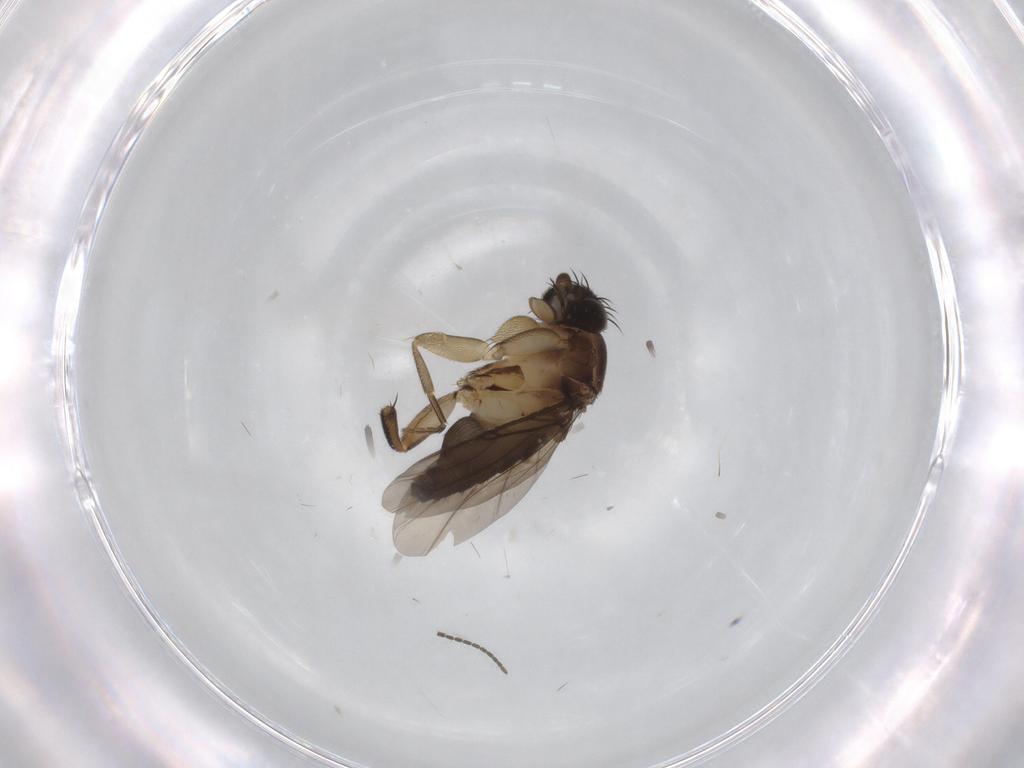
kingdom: Animalia
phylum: Arthropoda
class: Insecta
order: Diptera
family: Phoridae
